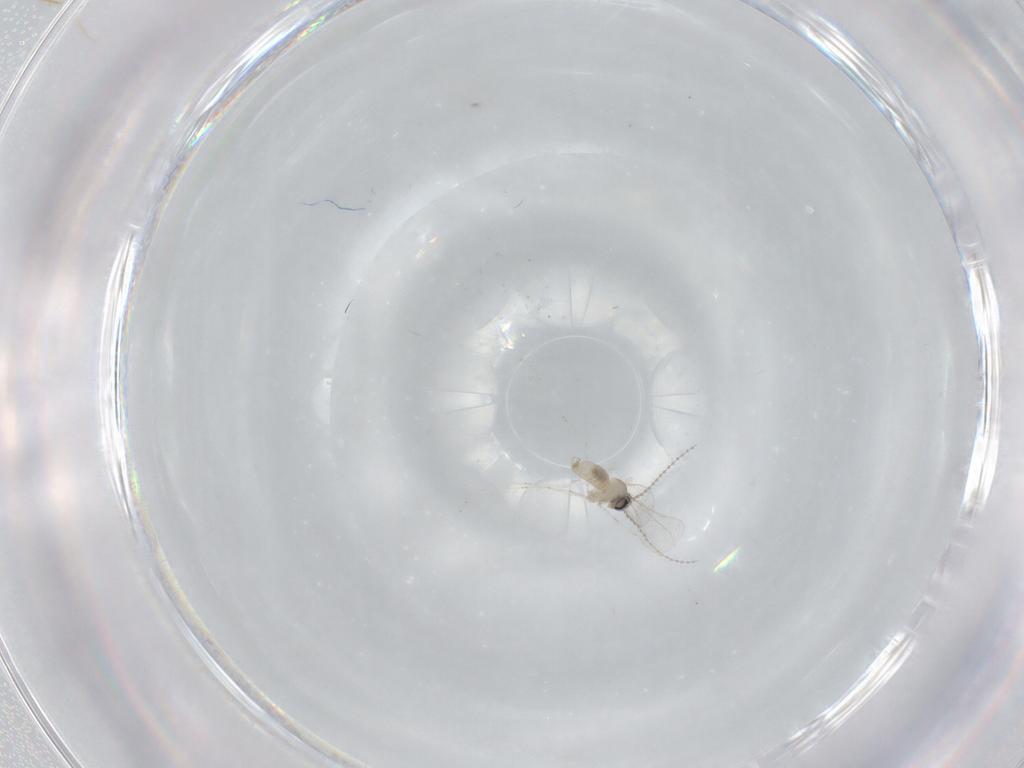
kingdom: Animalia
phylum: Arthropoda
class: Insecta
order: Diptera
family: Cecidomyiidae
